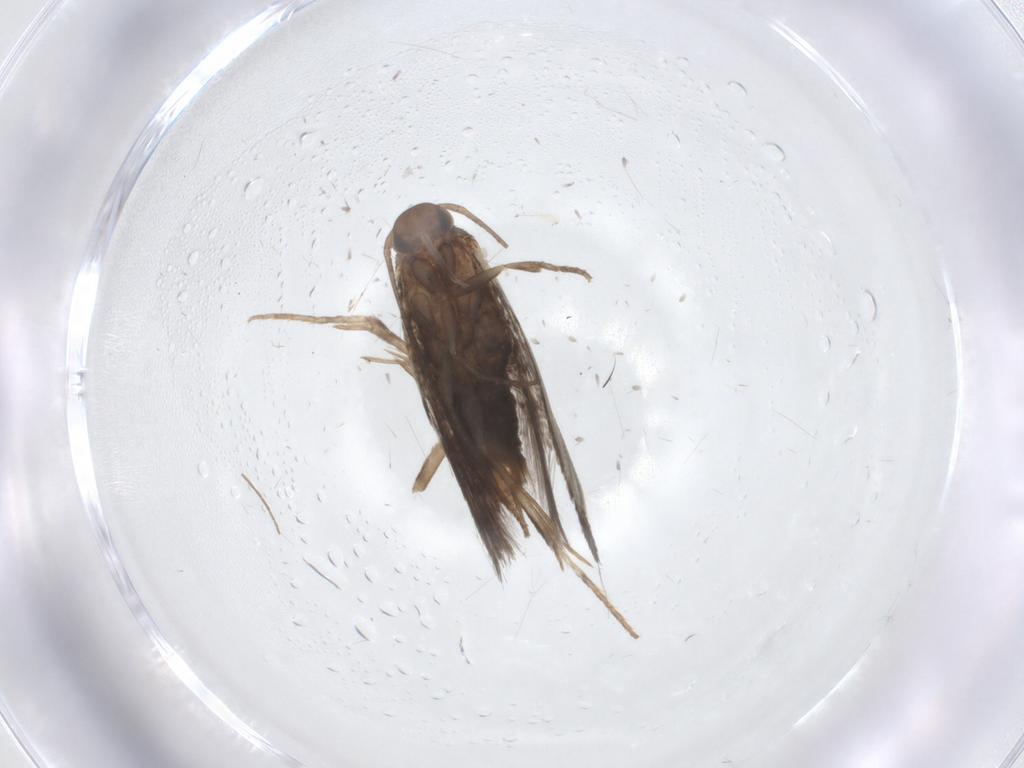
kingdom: Animalia
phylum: Arthropoda
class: Insecta
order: Lepidoptera
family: Elachistidae
